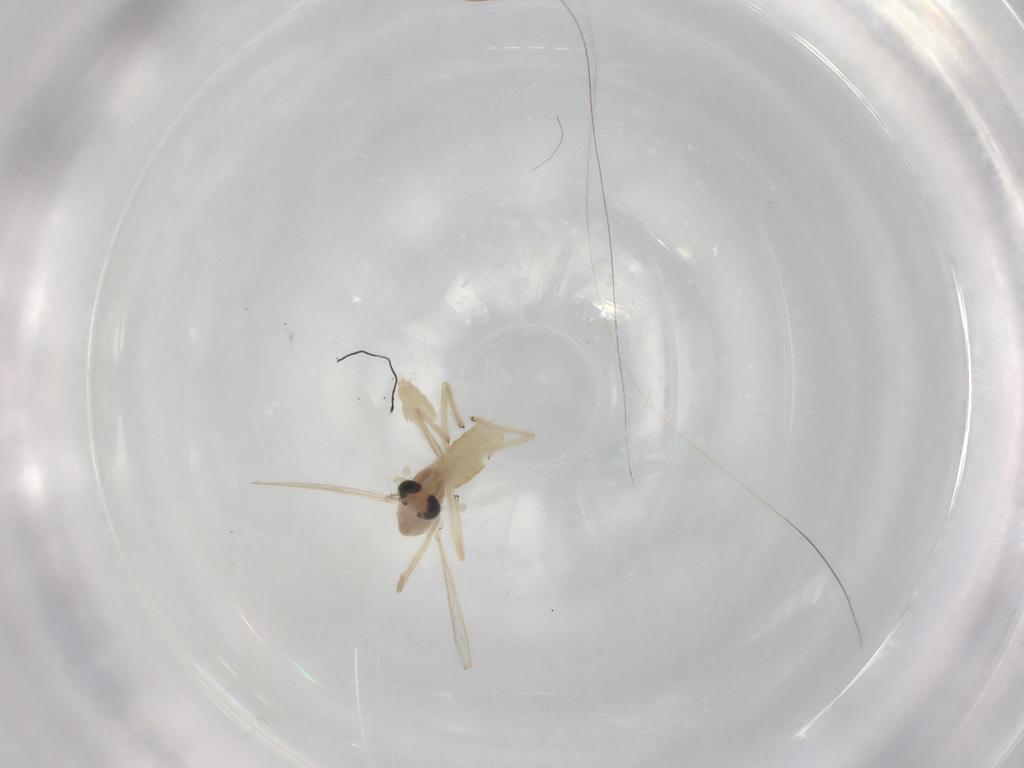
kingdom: Animalia
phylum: Arthropoda
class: Insecta
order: Diptera
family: Chironomidae
